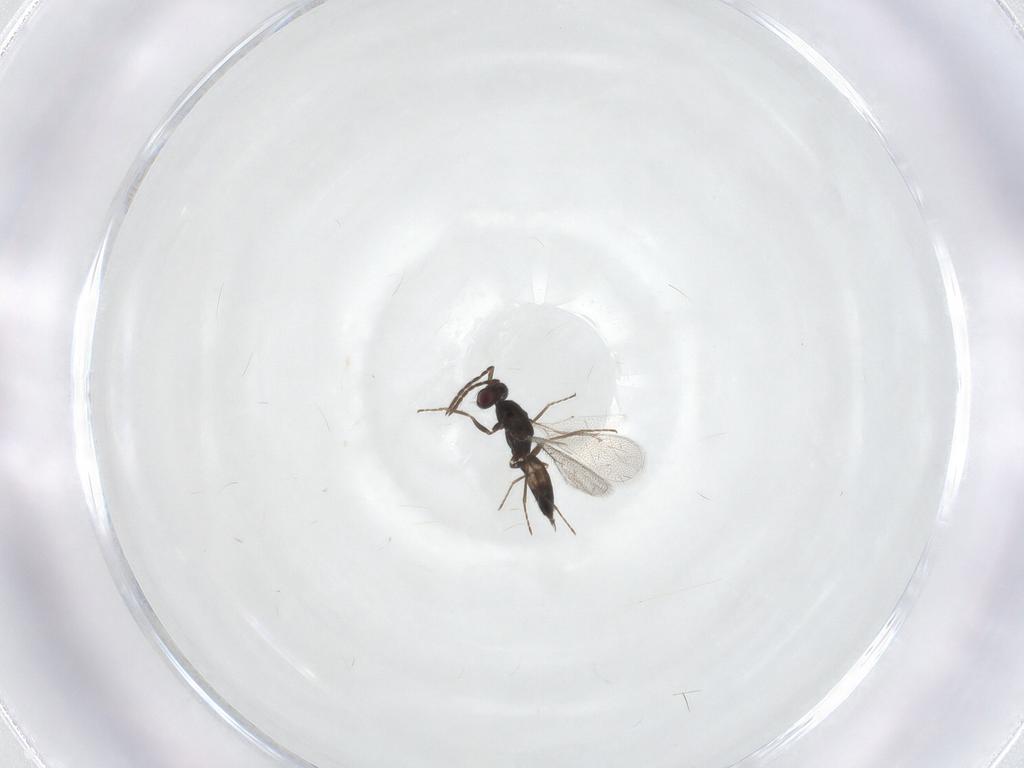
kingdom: Animalia
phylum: Arthropoda
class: Insecta
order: Hymenoptera
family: Eulophidae
